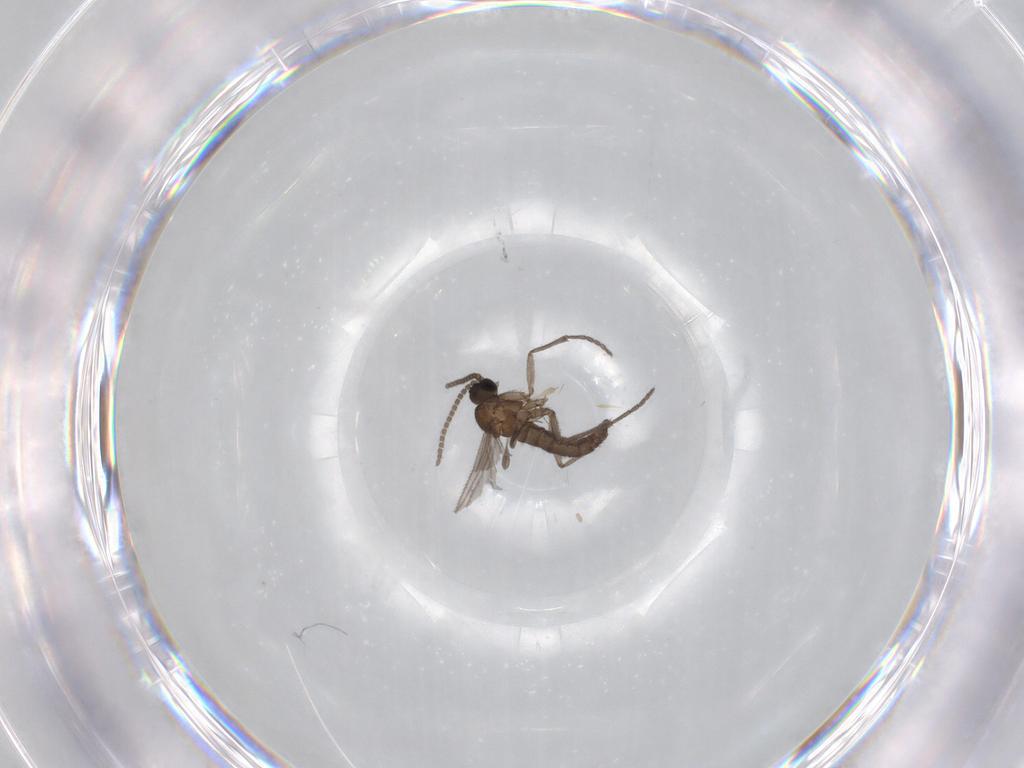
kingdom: Animalia
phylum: Arthropoda
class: Insecta
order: Diptera
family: Sciaridae
